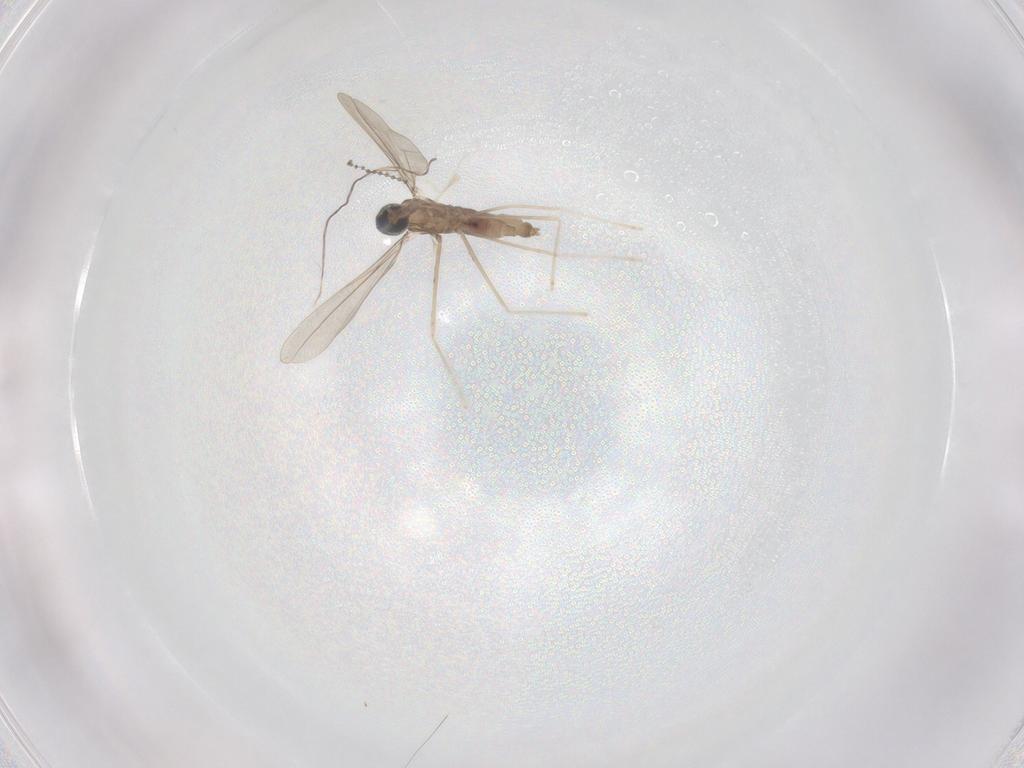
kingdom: Animalia
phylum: Arthropoda
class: Insecta
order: Diptera
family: Cecidomyiidae
